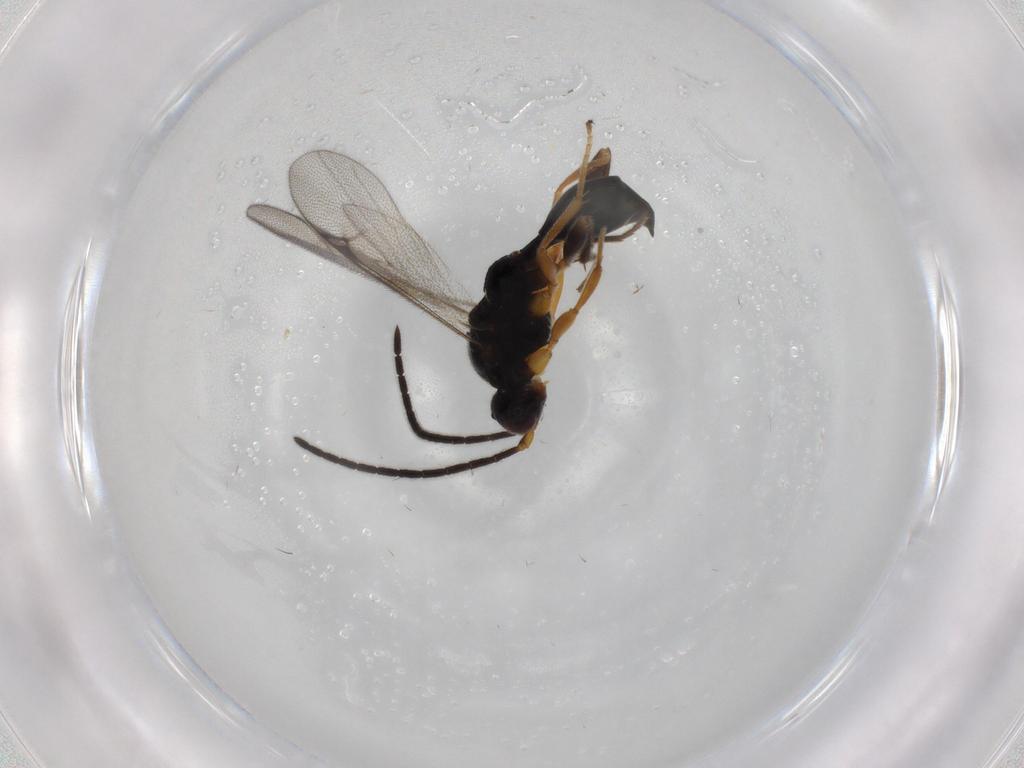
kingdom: Animalia
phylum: Arthropoda
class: Insecta
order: Hymenoptera
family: Proctotrupidae
